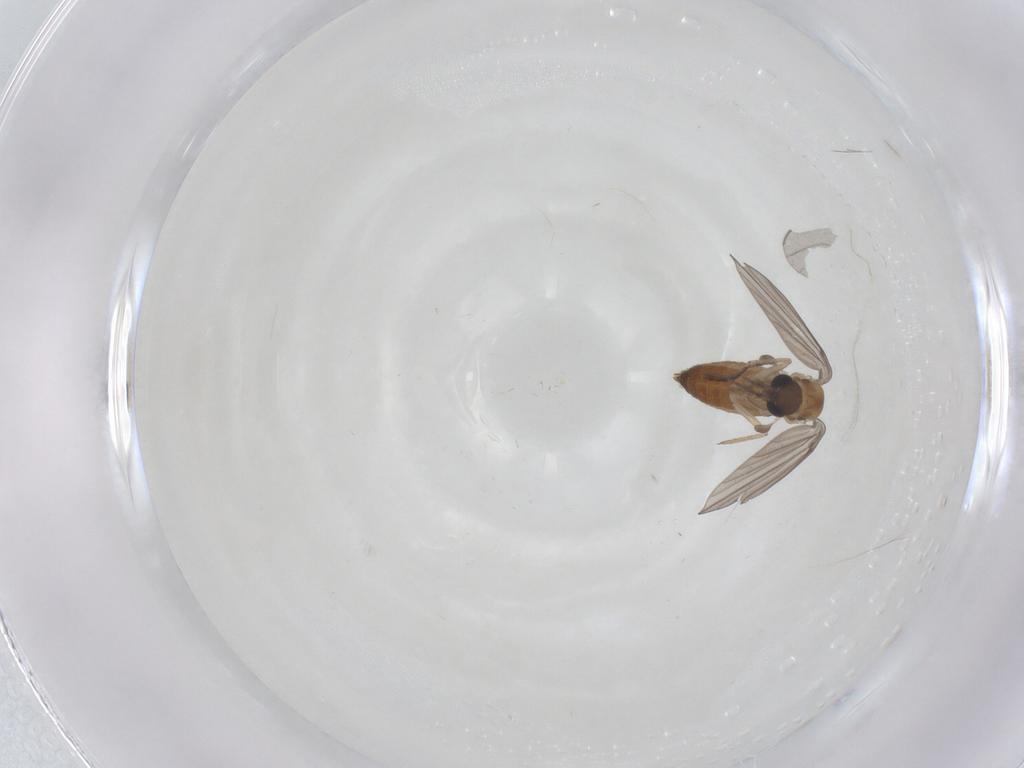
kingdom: Animalia
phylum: Arthropoda
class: Insecta
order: Diptera
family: Sciaridae
